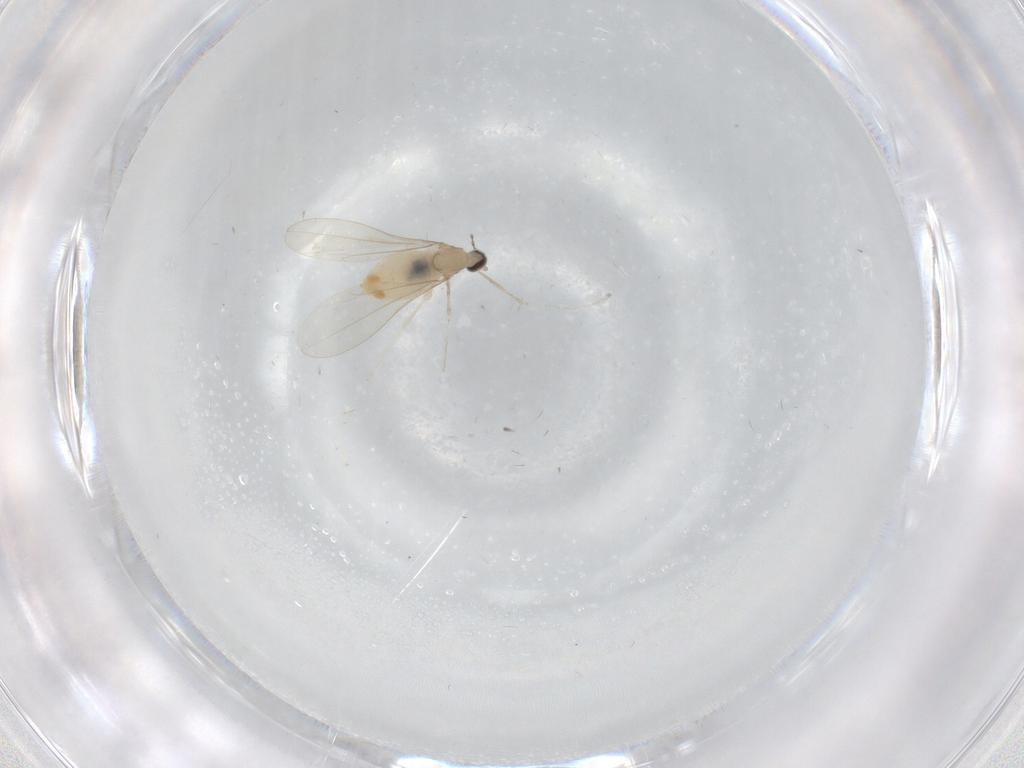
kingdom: Animalia
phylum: Arthropoda
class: Insecta
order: Diptera
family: Cecidomyiidae
